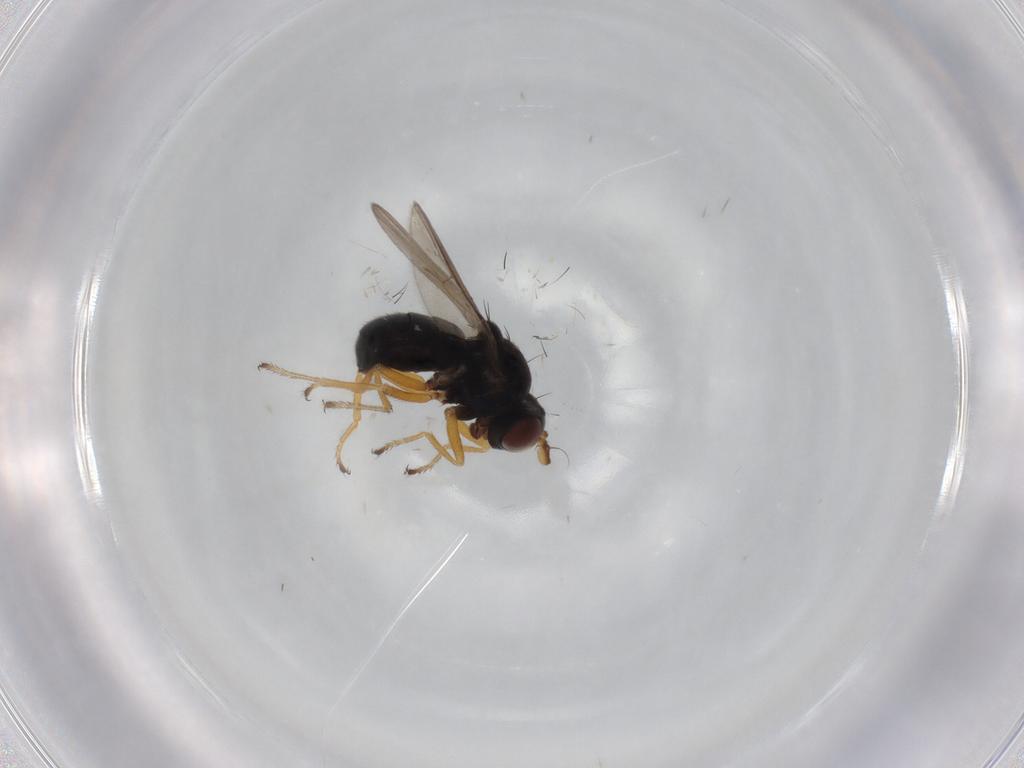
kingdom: Animalia
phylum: Arthropoda
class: Insecta
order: Diptera
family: Ephydridae
